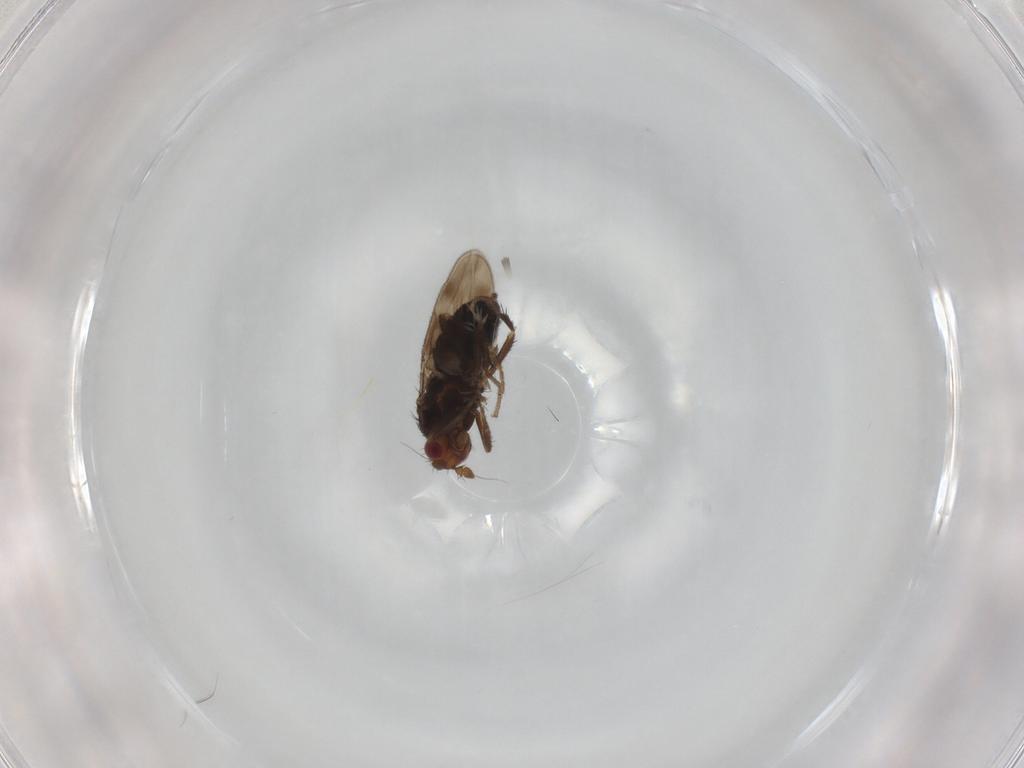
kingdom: Animalia
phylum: Arthropoda
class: Insecta
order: Diptera
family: Sphaeroceridae
